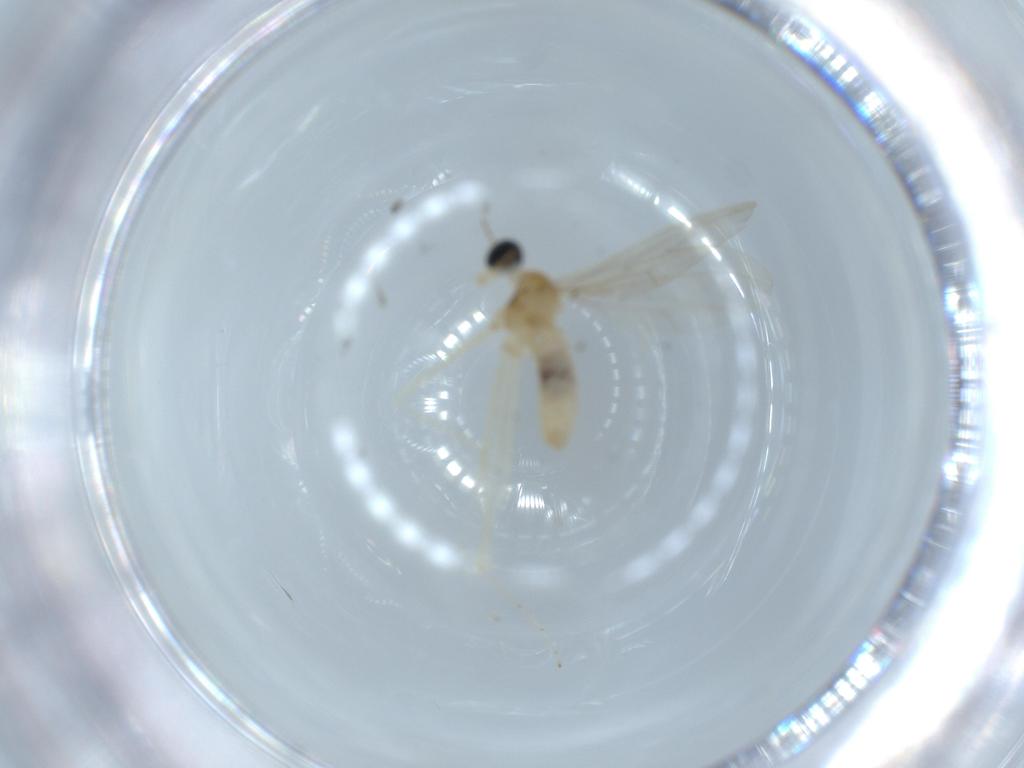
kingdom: Animalia
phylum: Arthropoda
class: Insecta
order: Diptera
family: Cecidomyiidae
